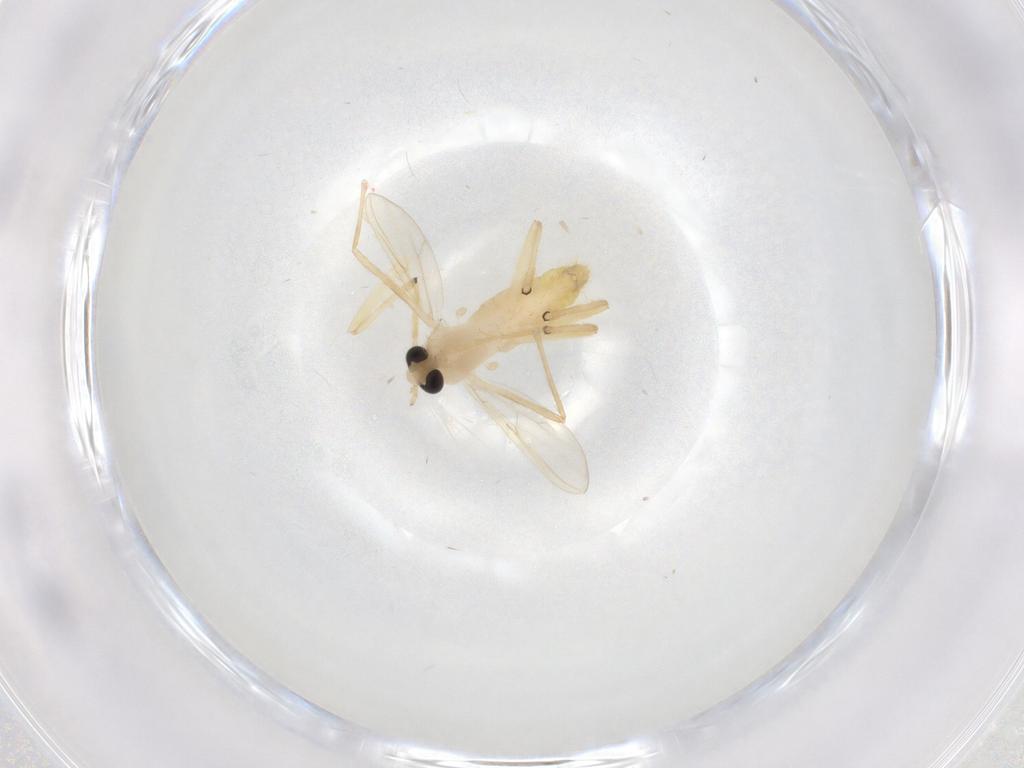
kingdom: Animalia
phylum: Arthropoda
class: Insecta
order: Diptera
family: Chironomidae
